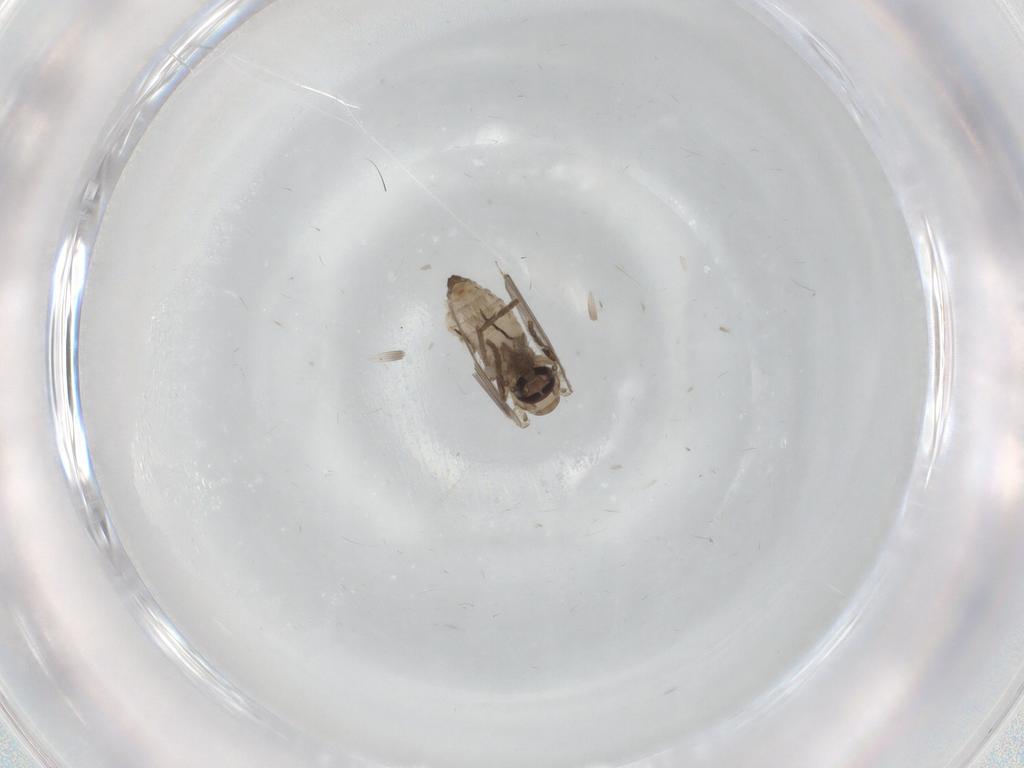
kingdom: Animalia
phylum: Arthropoda
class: Insecta
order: Diptera
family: Psychodidae
